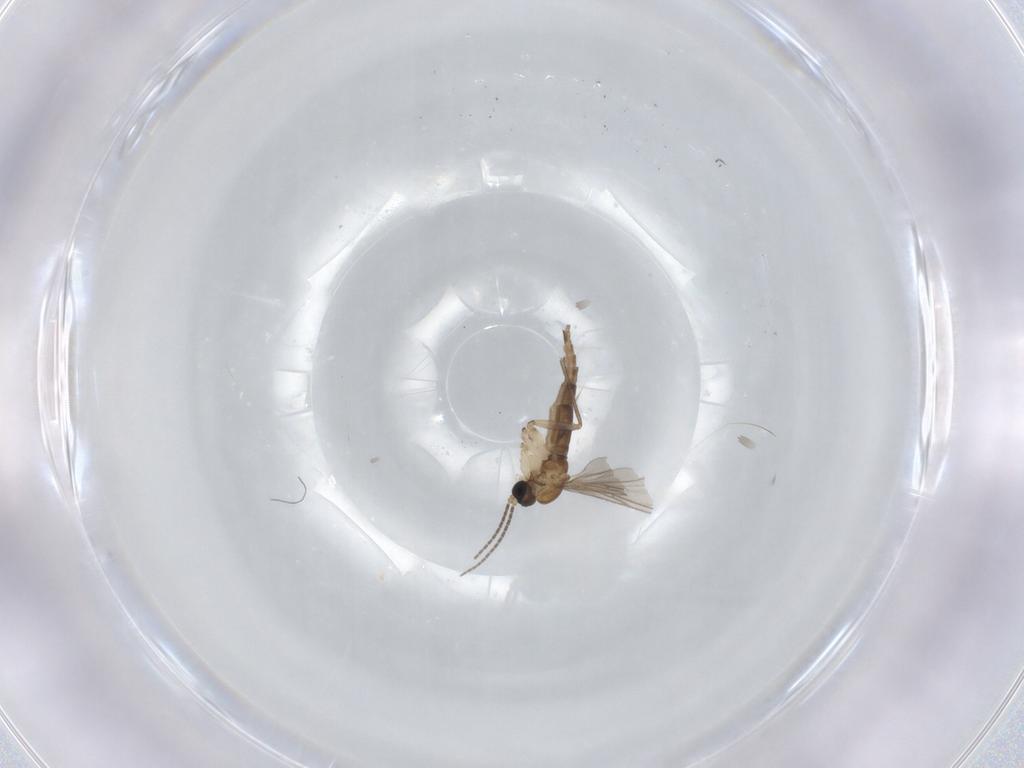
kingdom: Animalia
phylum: Arthropoda
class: Insecta
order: Diptera
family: Sciaridae
